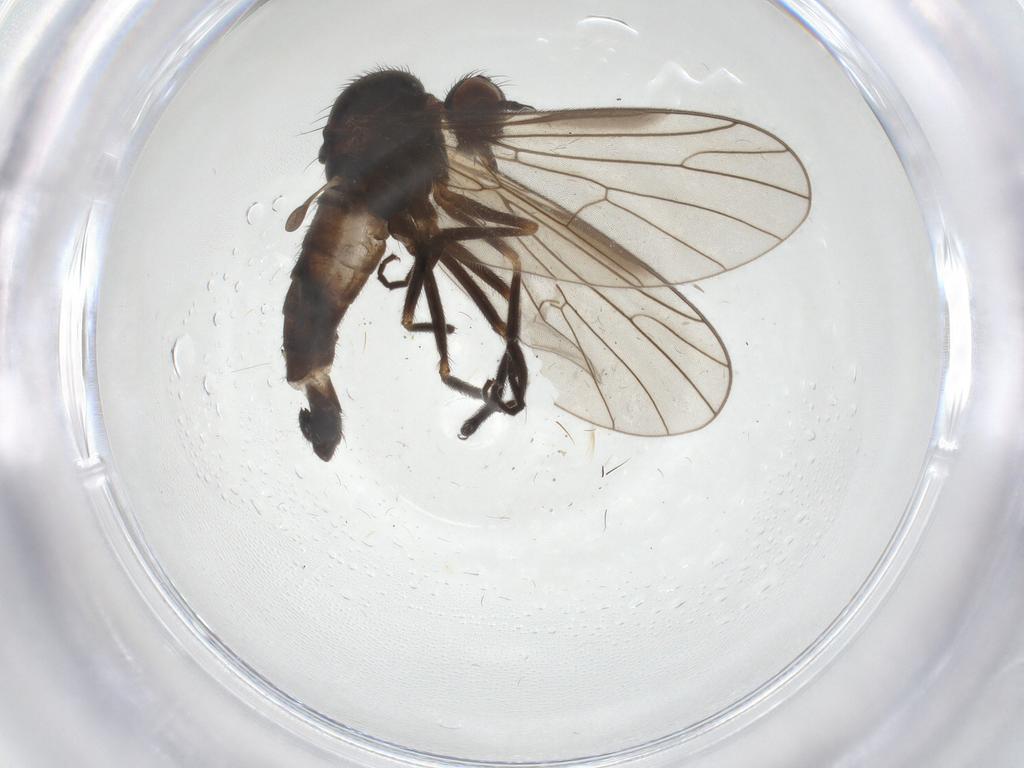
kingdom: Animalia
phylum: Arthropoda
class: Insecta
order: Diptera
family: Empididae
